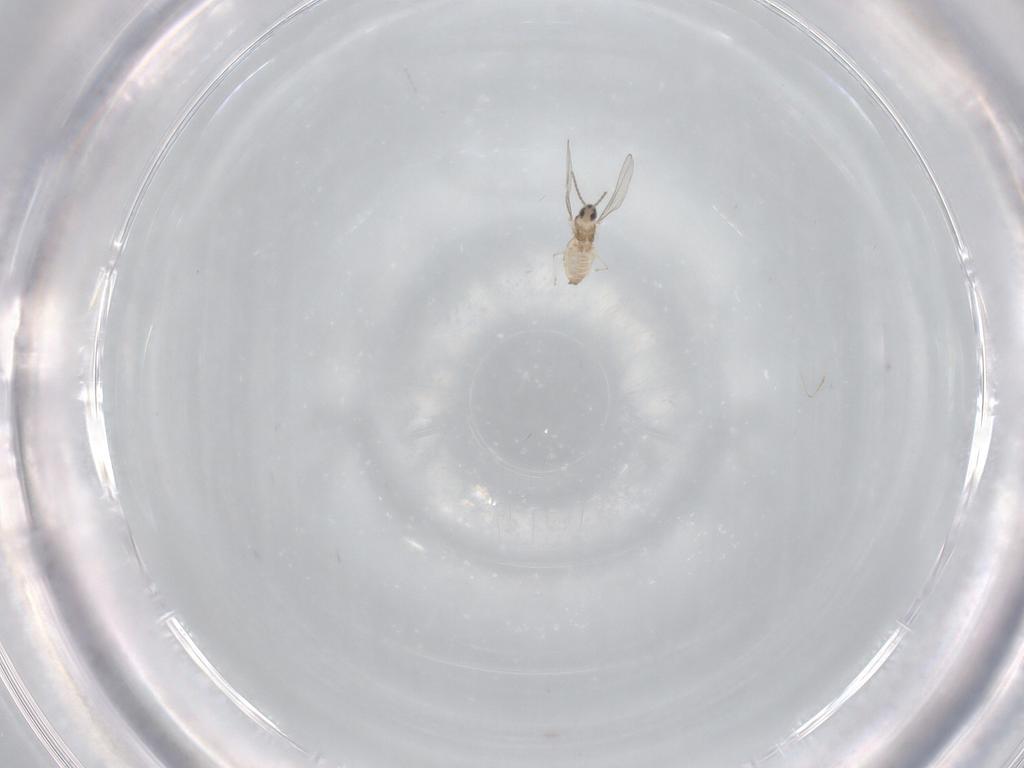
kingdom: Animalia
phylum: Arthropoda
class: Insecta
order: Diptera
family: Cecidomyiidae
